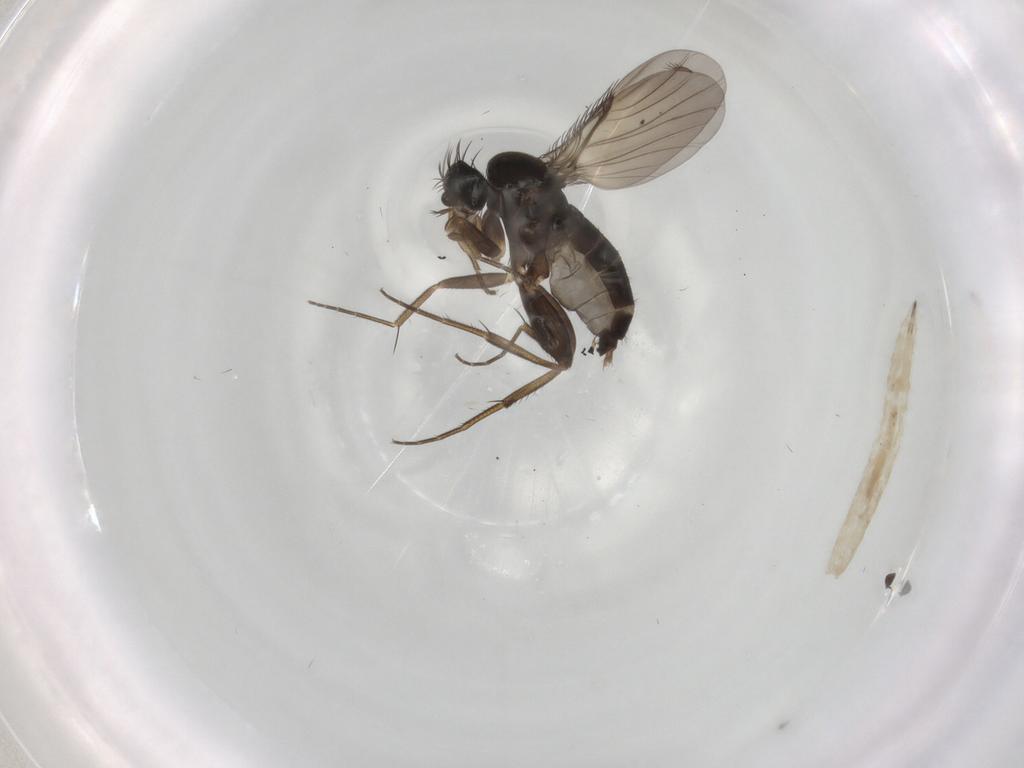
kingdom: Animalia
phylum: Arthropoda
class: Insecta
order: Diptera
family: Phoridae
